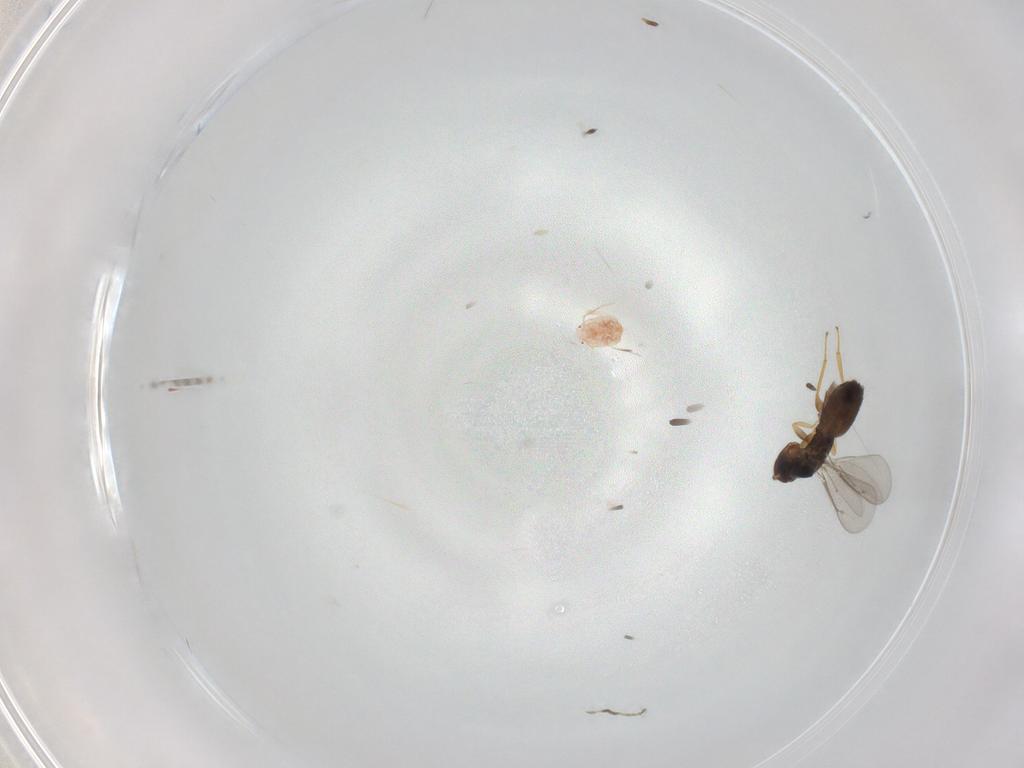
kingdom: Animalia
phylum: Arthropoda
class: Insecta
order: Hymenoptera
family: Eulophidae
